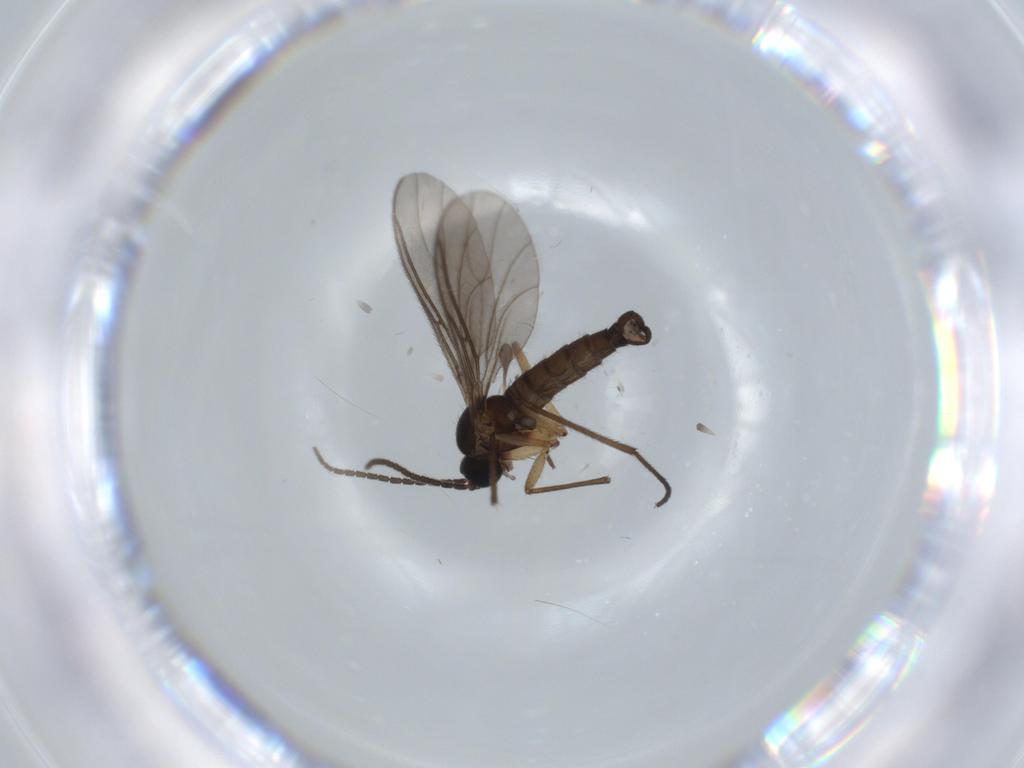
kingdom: Animalia
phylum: Arthropoda
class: Insecta
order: Diptera
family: Sciaridae
